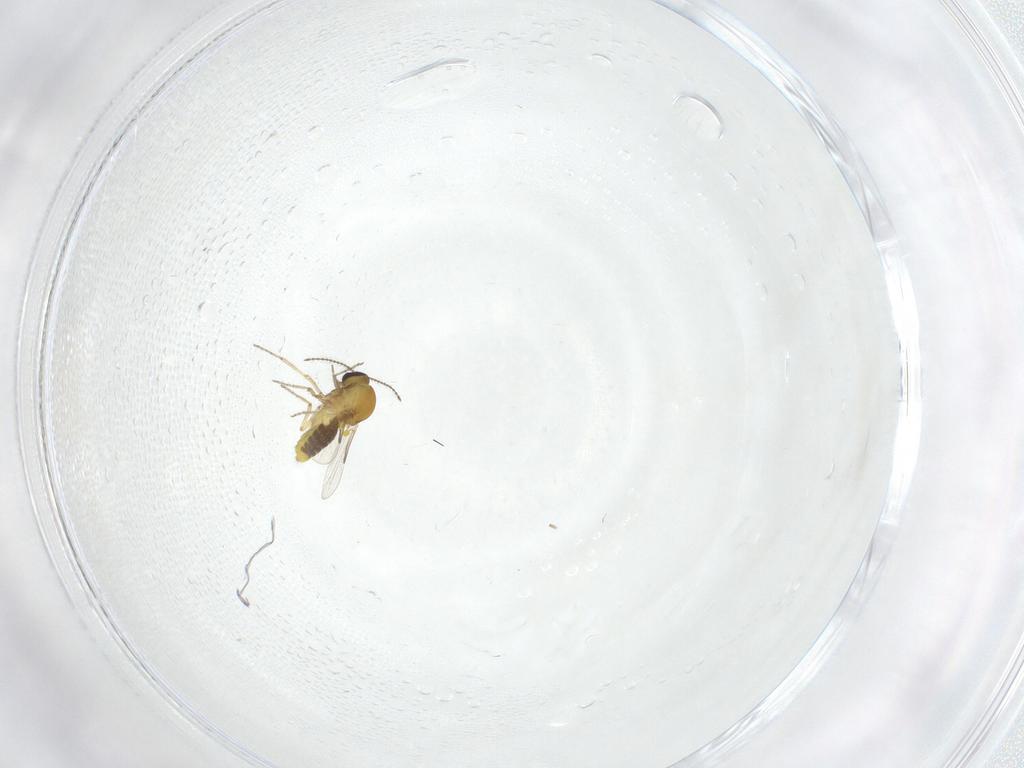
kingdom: Animalia
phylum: Arthropoda
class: Insecta
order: Diptera
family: Ceratopogonidae
